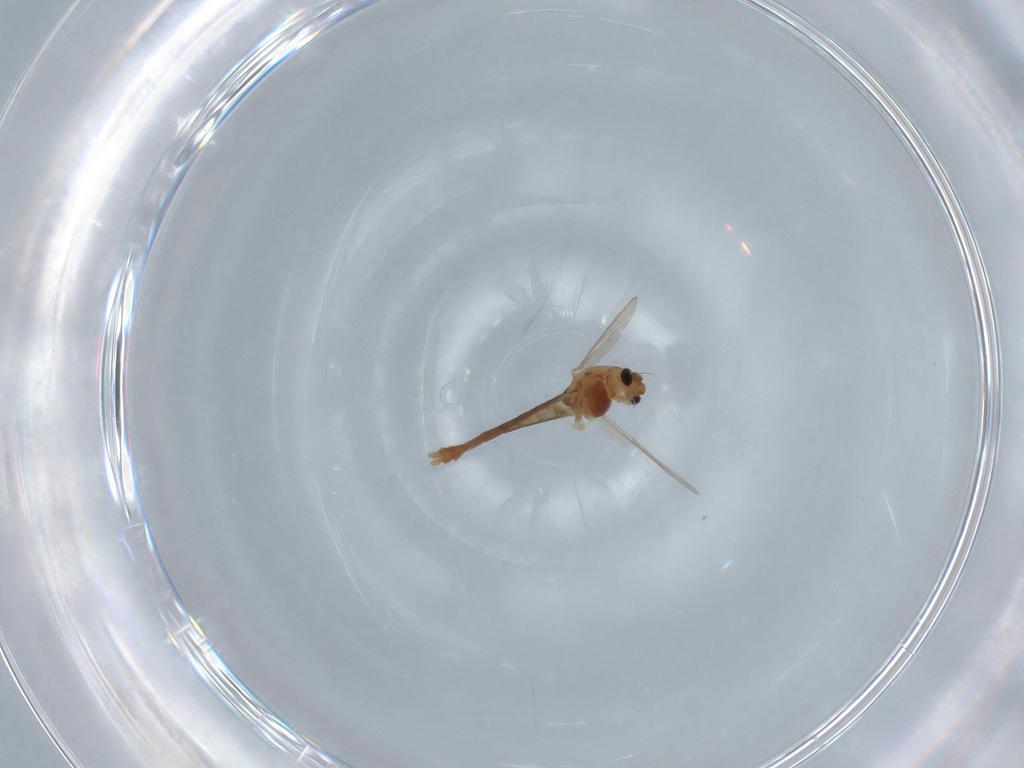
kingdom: Animalia
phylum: Arthropoda
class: Insecta
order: Diptera
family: Chironomidae
